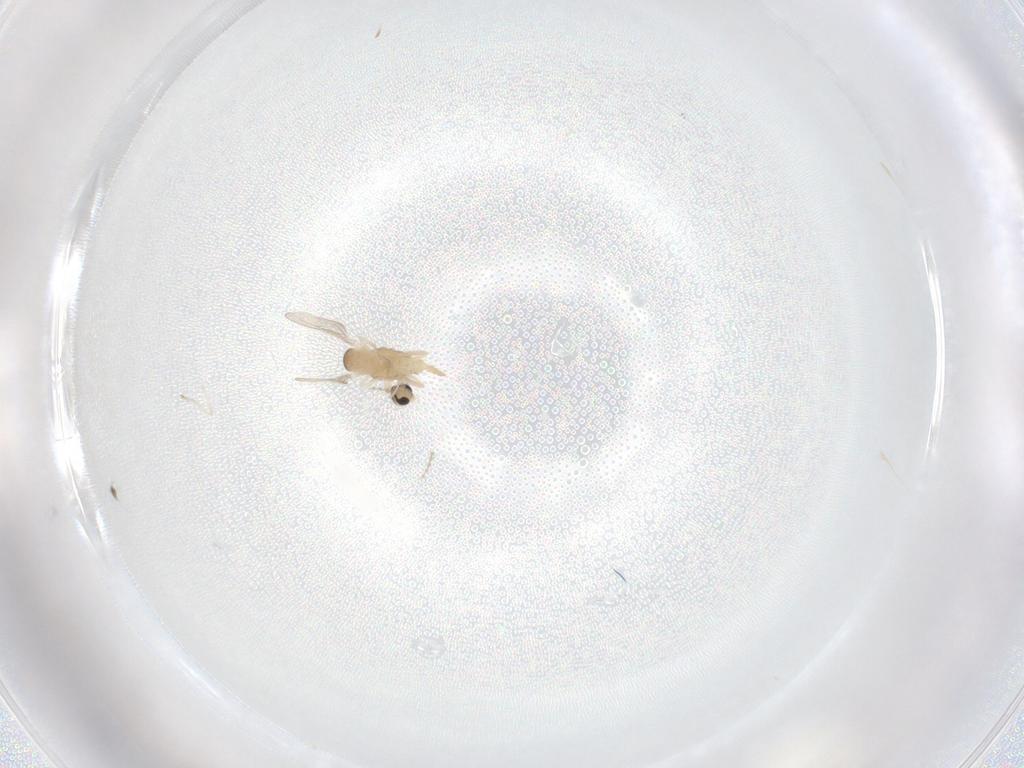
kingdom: Animalia
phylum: Arthropoda
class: Insecta
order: Diptera
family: Cecidomyiidae
